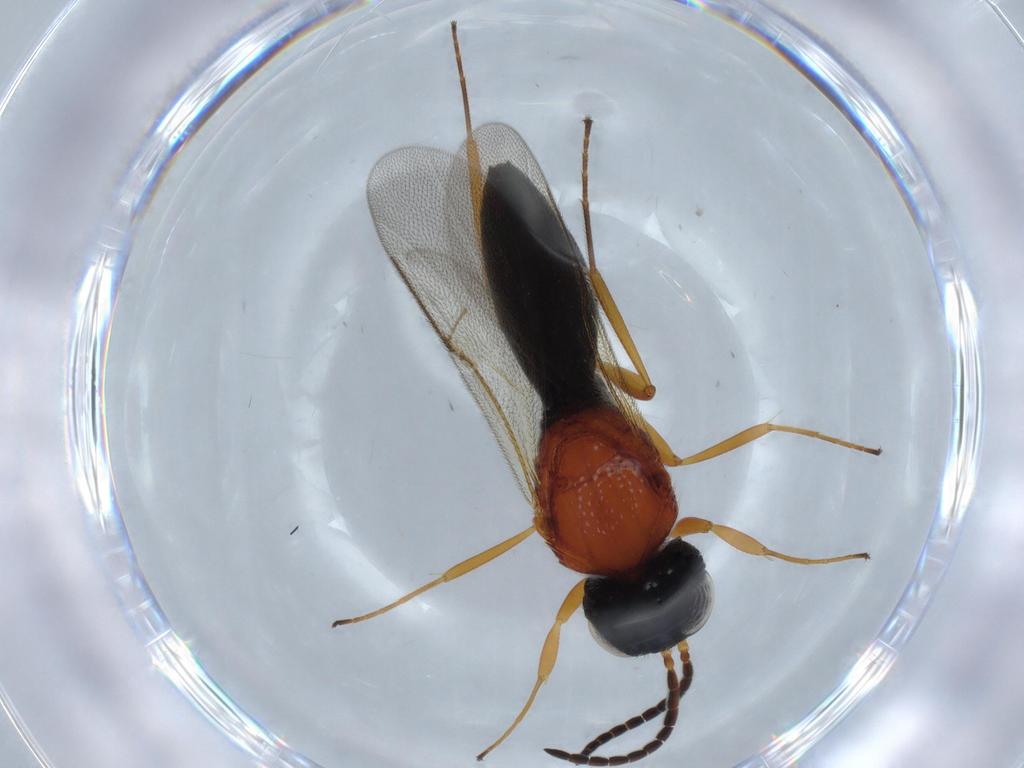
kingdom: Animalia
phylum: Arthropoda
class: Insecta
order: Hymenoptera
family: Scelionidae
